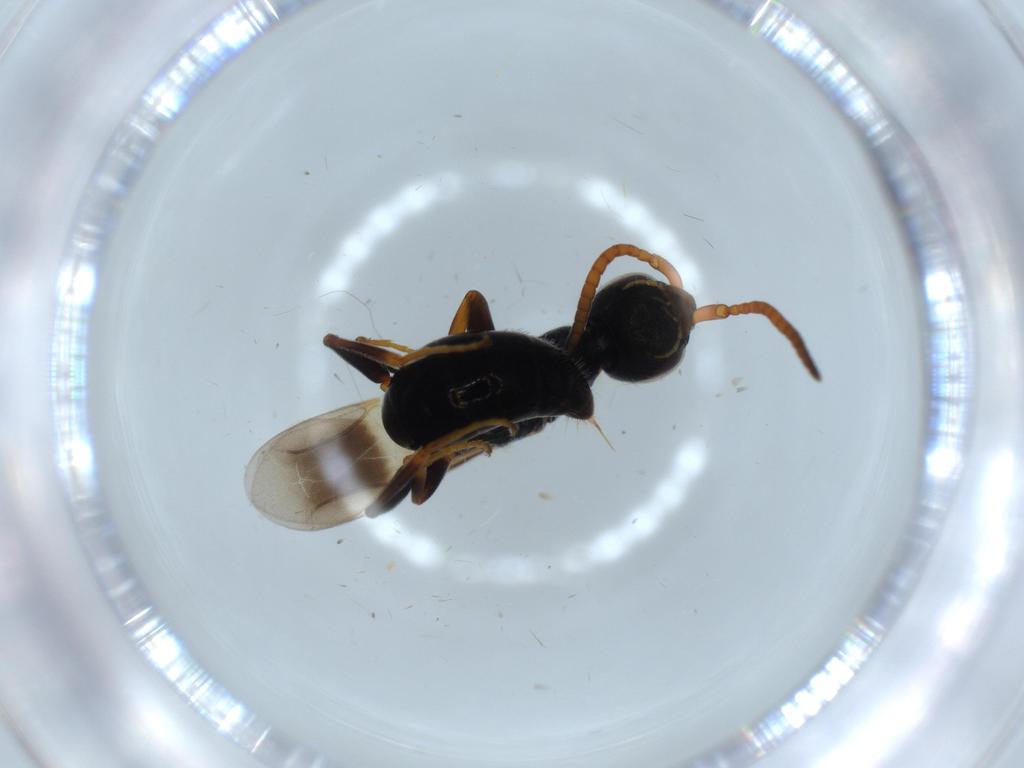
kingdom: Animalia
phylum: Arthropoda
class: Insecta
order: Hymenoptera
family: Bethylidae
